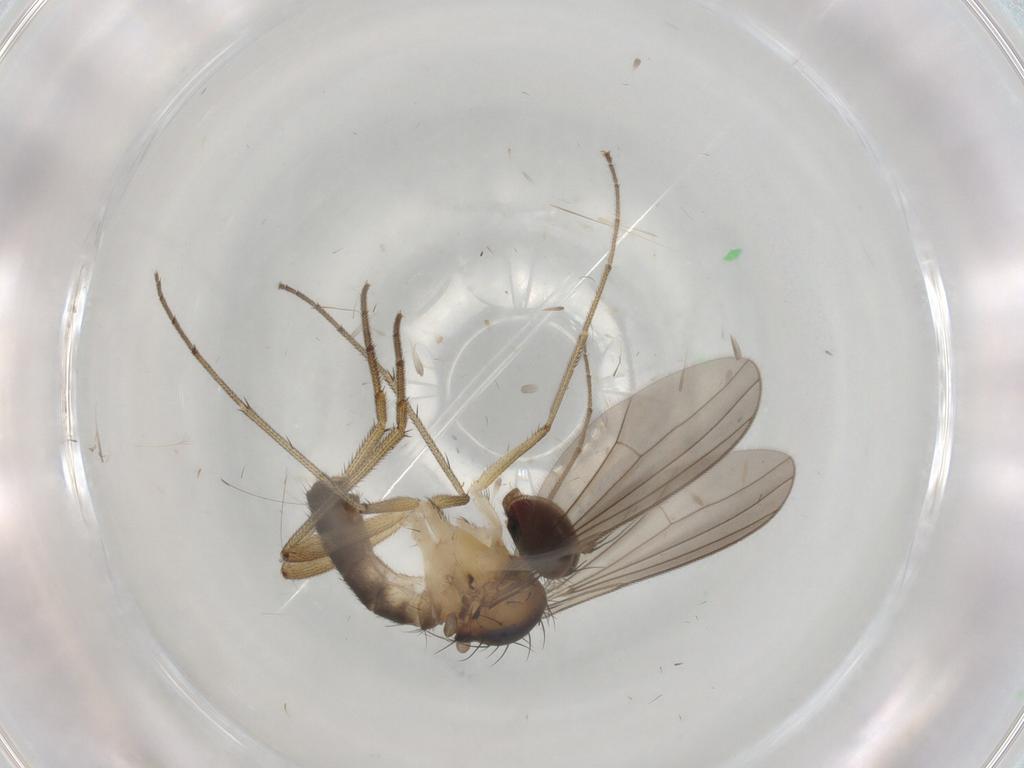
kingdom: Animalia
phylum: Arthropoda
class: Insecta
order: Diptera
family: Dolichopodidae
